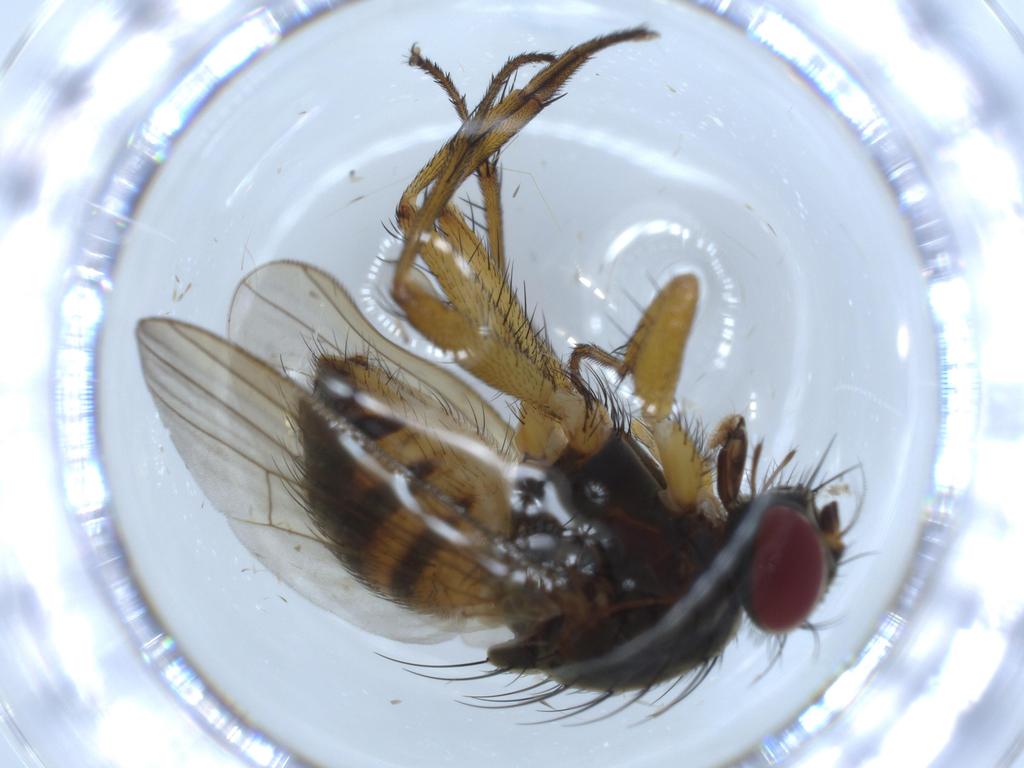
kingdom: Animalia
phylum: Arthropoda
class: Insecta
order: Diptera
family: Muscidae
